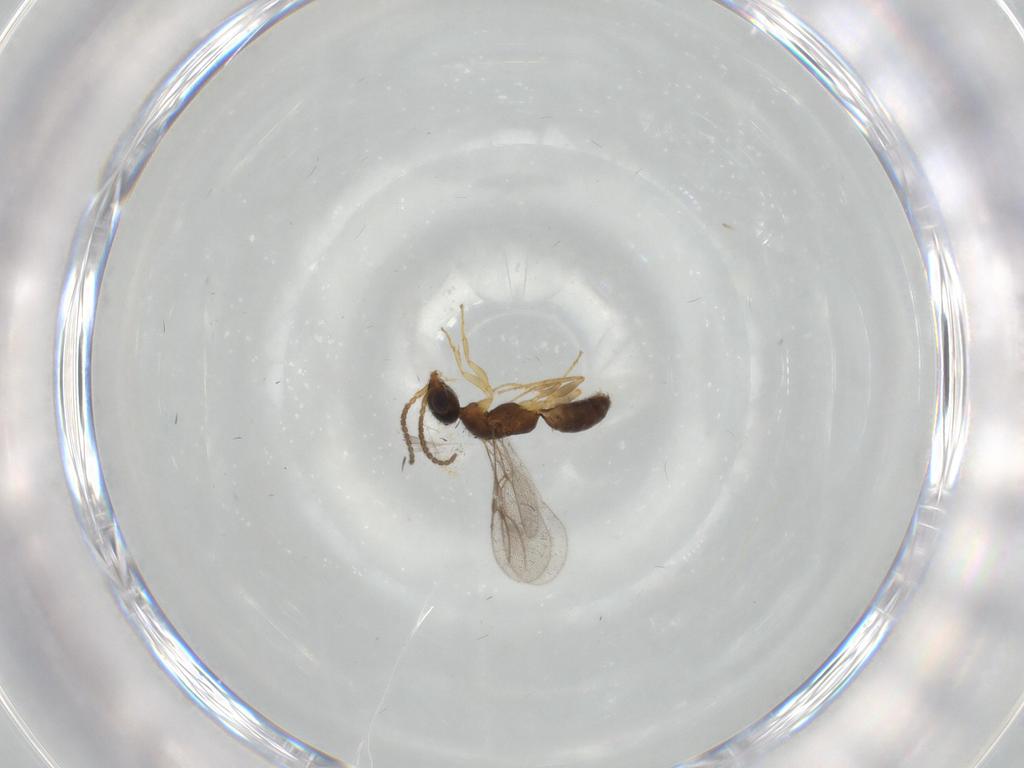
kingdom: Animalia
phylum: Arthropoda
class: Insecta
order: Hymenoptera
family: Bethylidae
